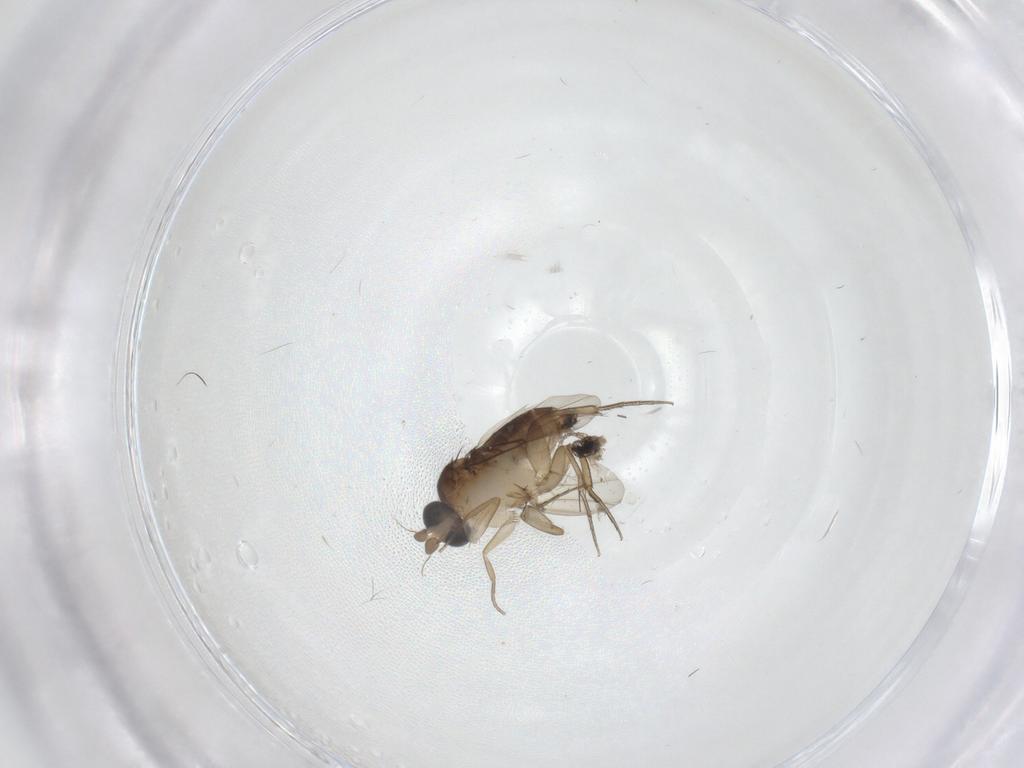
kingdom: Animalia
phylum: Arthropoda
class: Insecta
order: Diptera
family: Phoridae
